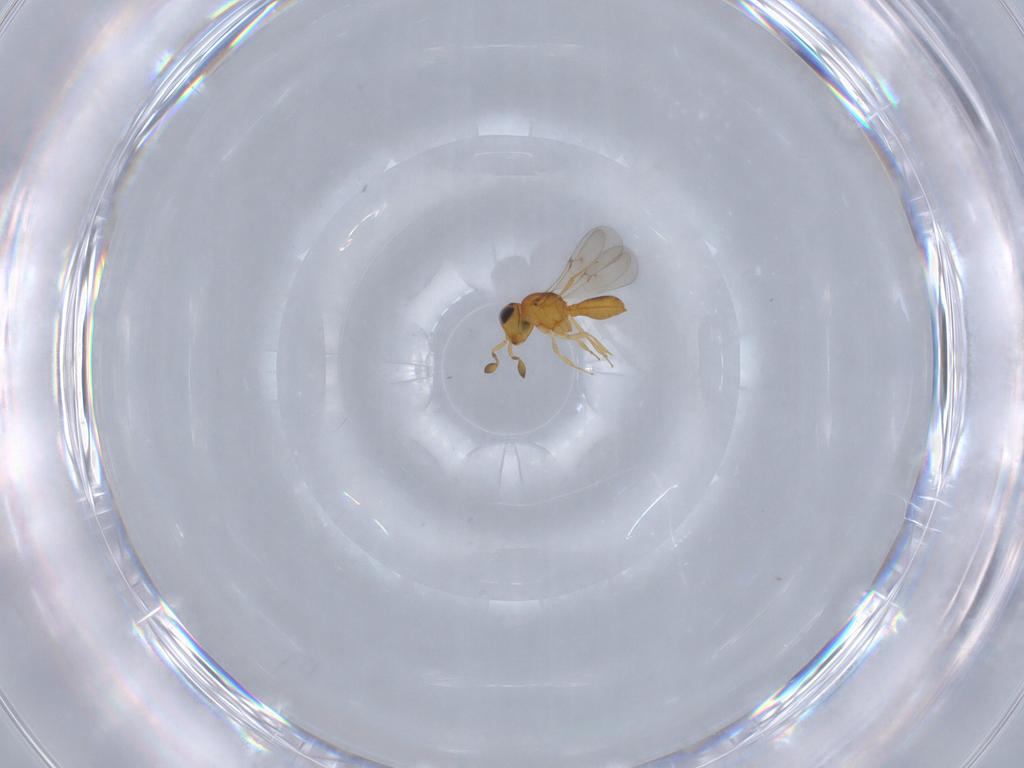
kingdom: Animalia
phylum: Arthropoda
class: Insecta
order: Hymenoptera
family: Scelionidae
